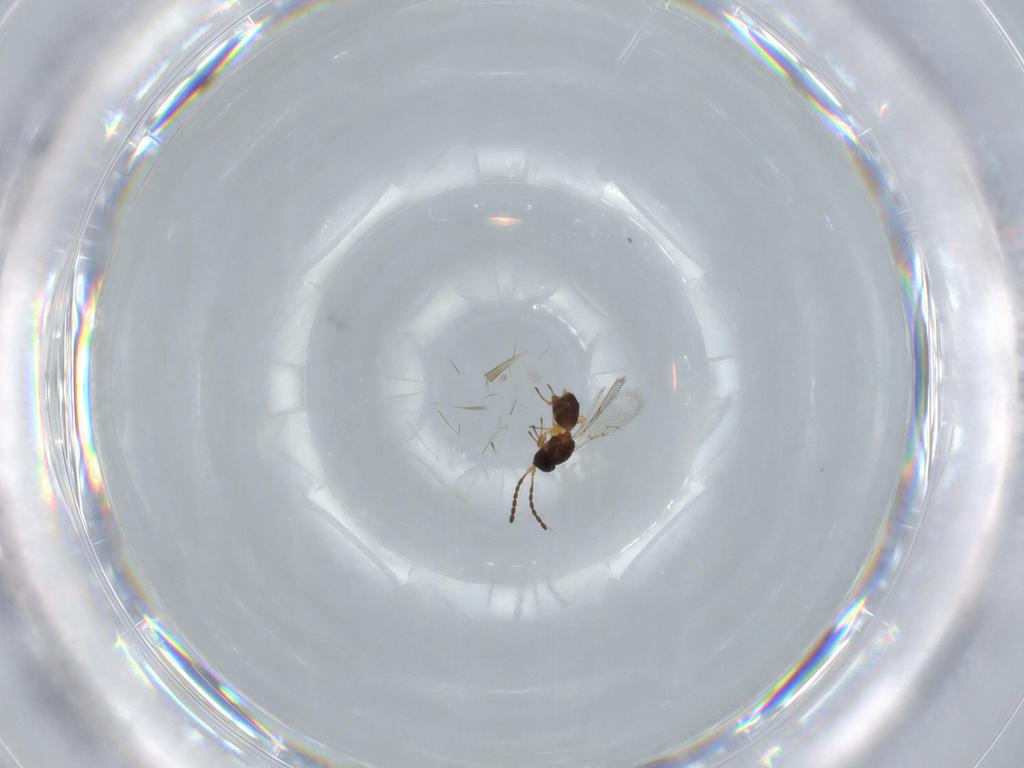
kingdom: Animalia
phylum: Arthropoda
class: Insecta
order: Hymenoptera
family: Figitidae
